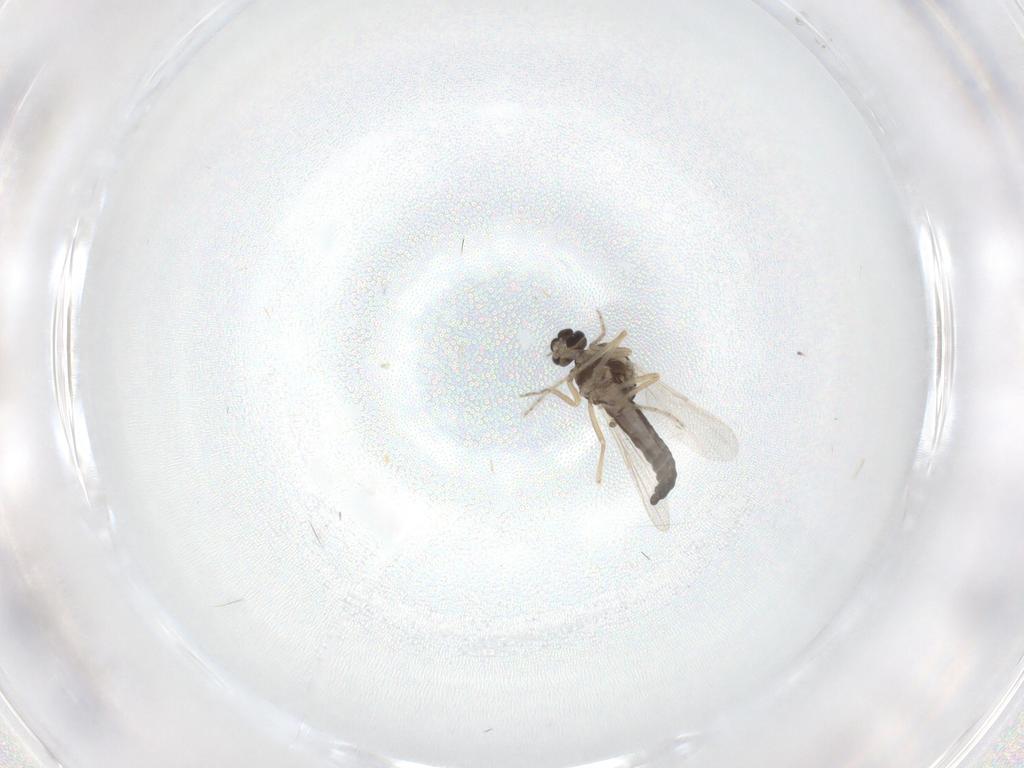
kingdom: Animalia
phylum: Arthropoda
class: Insecta
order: Diptera
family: Ceratopogonidae
